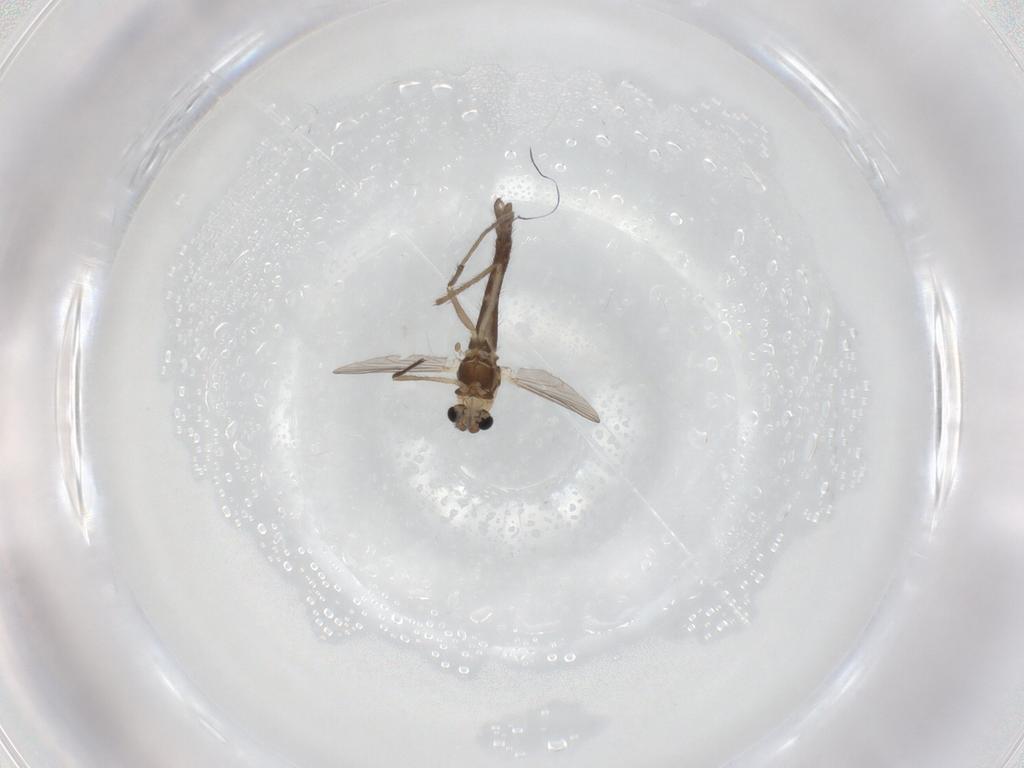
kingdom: Animalia
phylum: Arthropoda
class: Insecta
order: Diptera
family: Chironomidae
